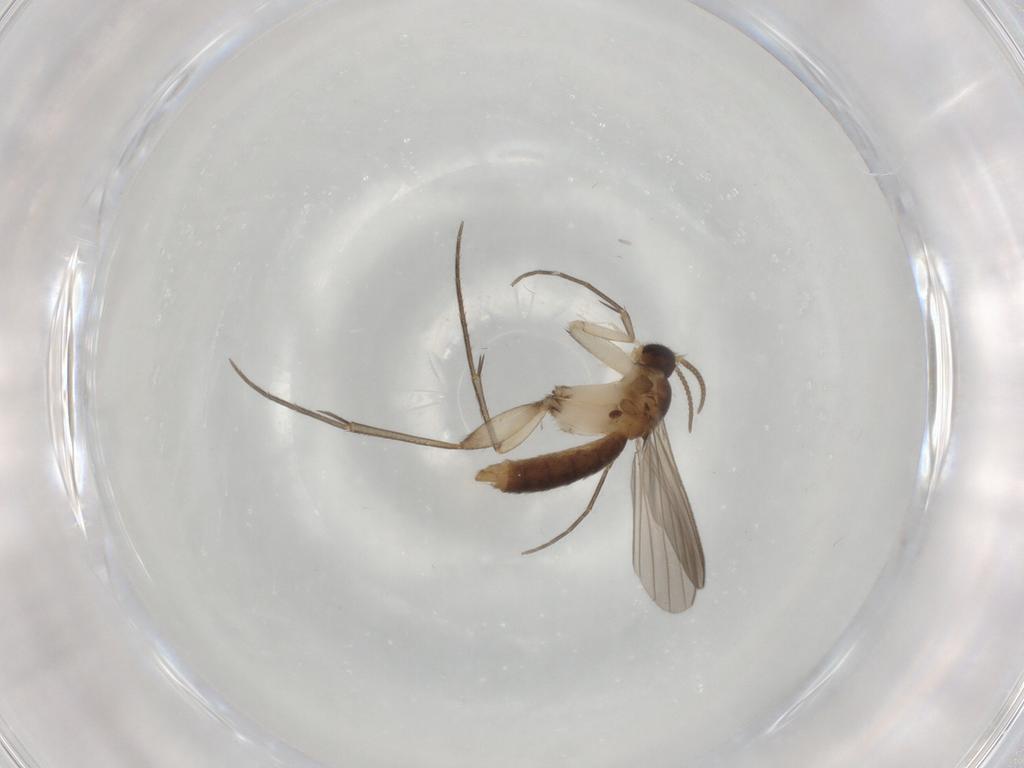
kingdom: Animalia
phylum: Arthropoda
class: Insecta
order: Diptera
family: Mycetophilidae
